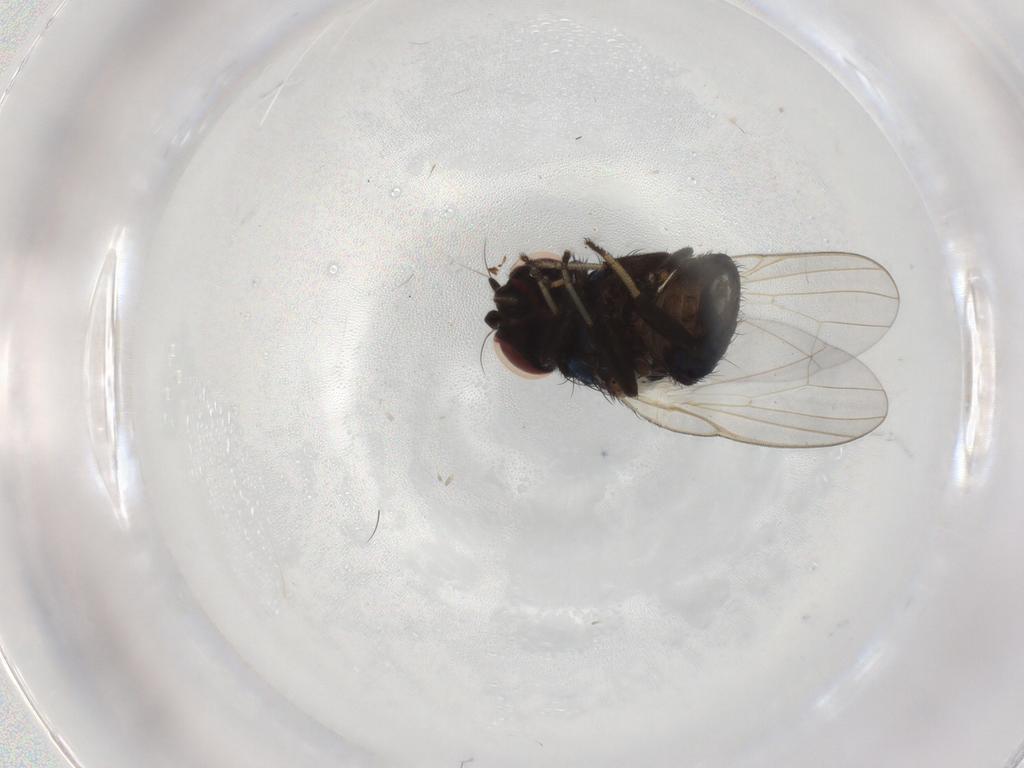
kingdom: Animalia
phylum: Arthropoda
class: Insecta
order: Diptera
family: Lonchaeidae
